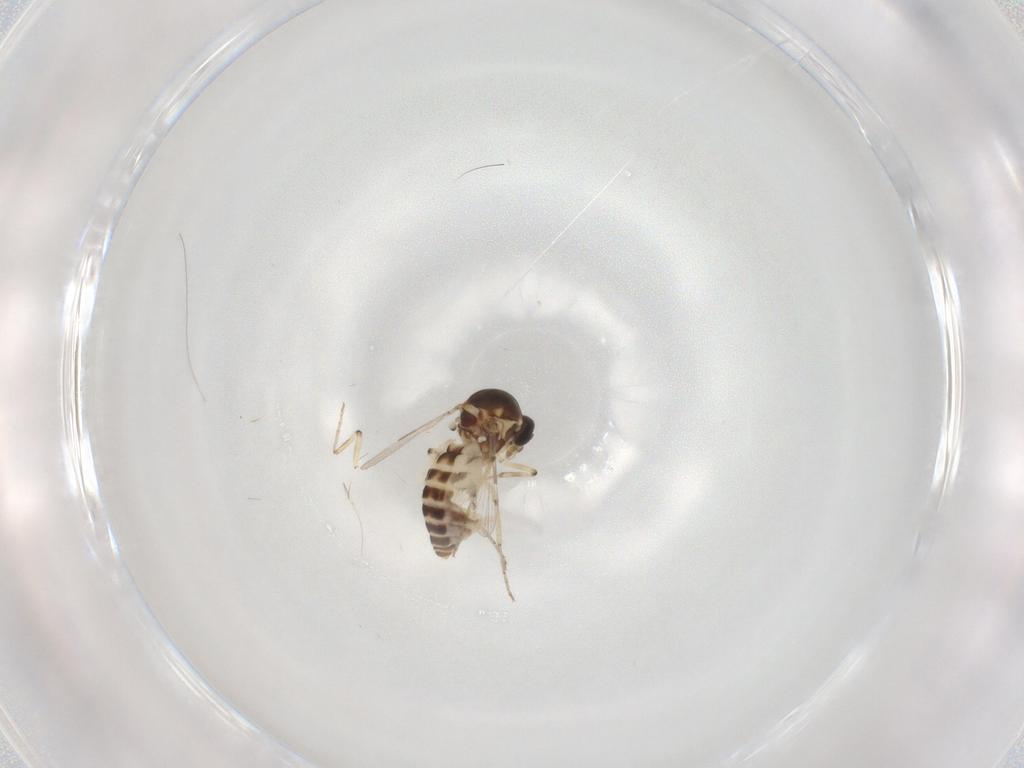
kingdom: Animalia
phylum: Arthropoda
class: Insecta
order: Diptera
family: Ceratopogonidae
